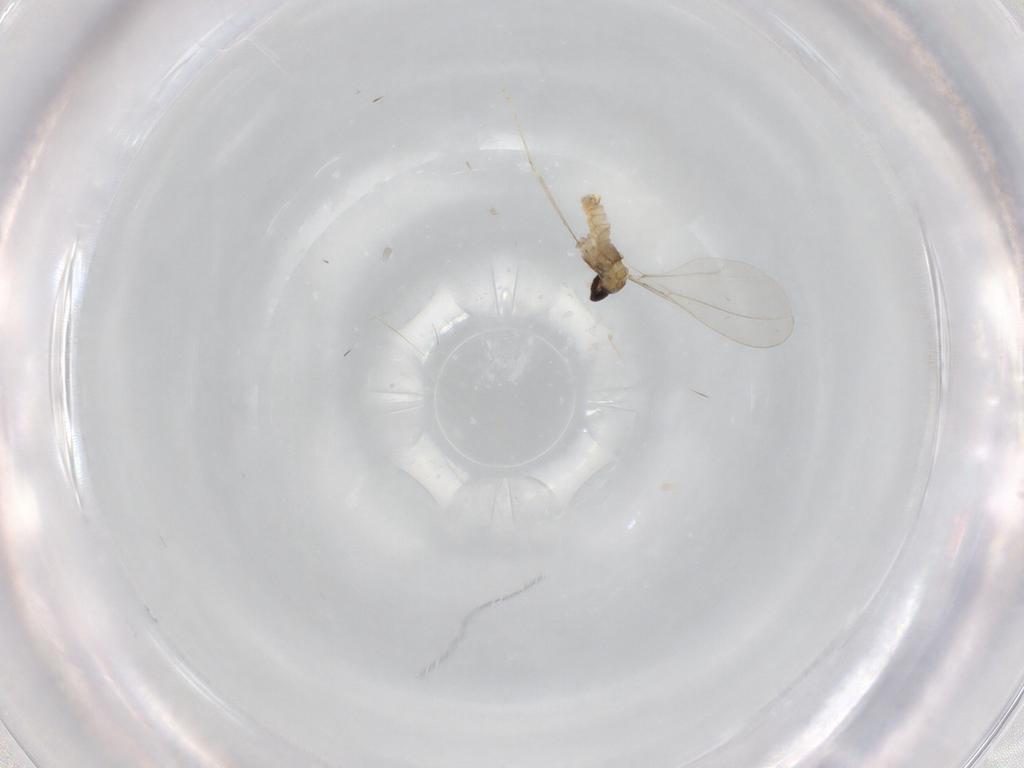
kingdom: Animalia
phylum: Arthropoda
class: Insecta
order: Diptera
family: Cecidomyiidae
